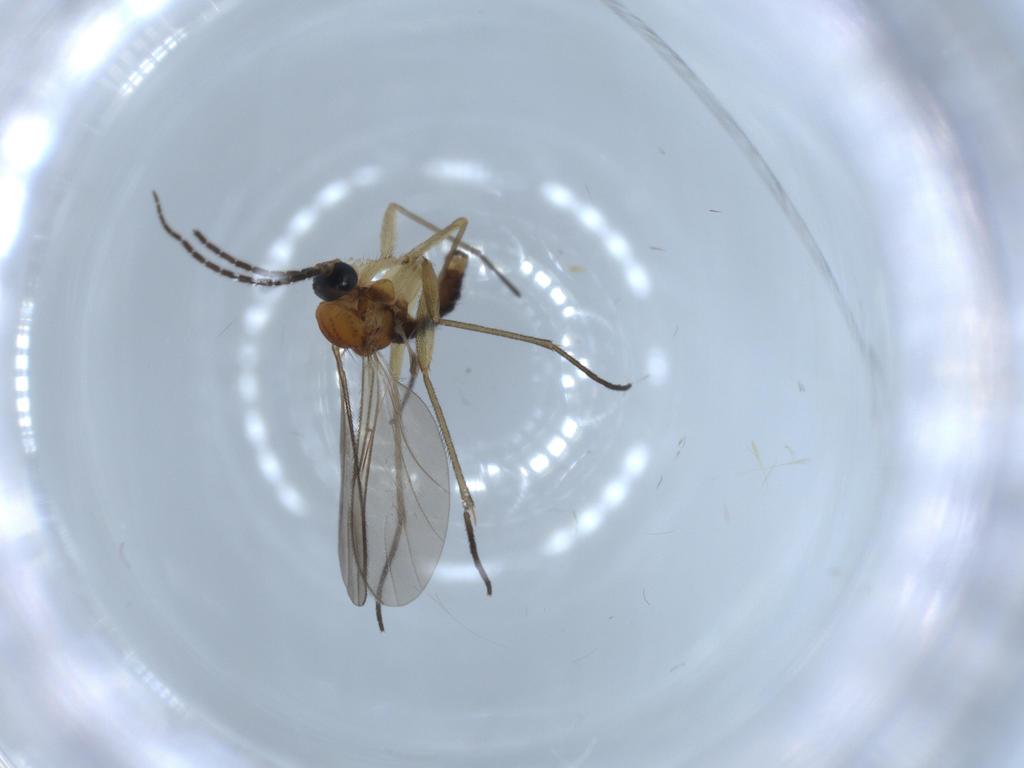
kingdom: Animalia
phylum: Arthropoda
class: Insecta
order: Diptera
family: Sciaridae
